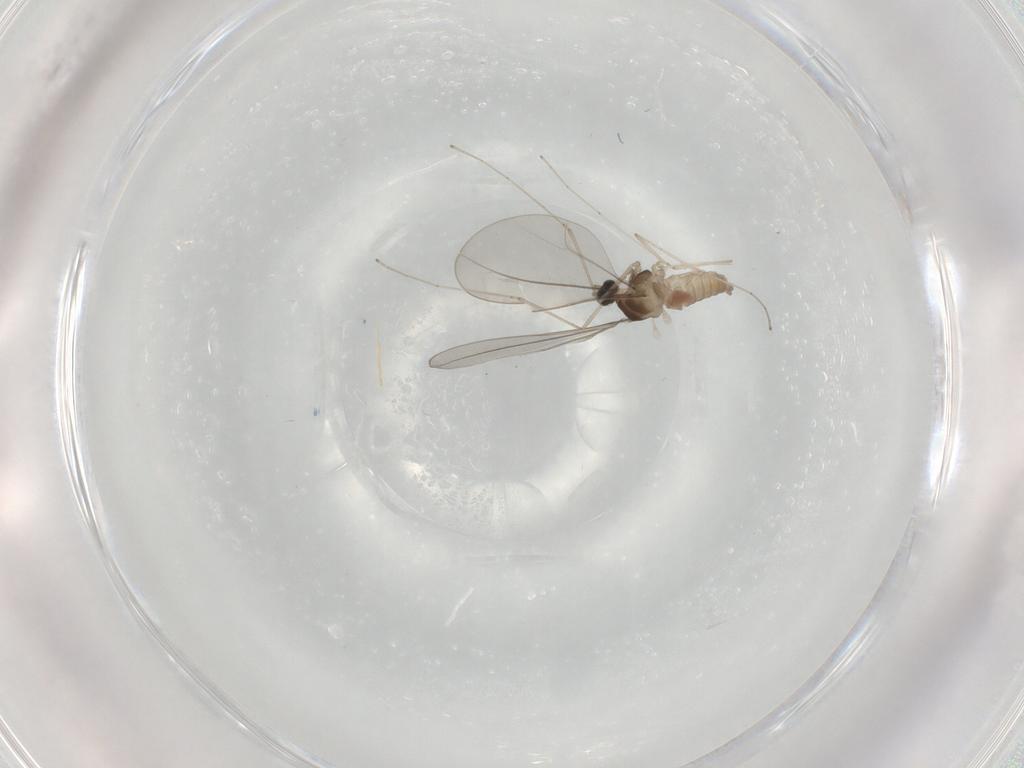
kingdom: Animalia
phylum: Arthropoda
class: Insecta
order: Diptera
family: Cecidomyiidae
